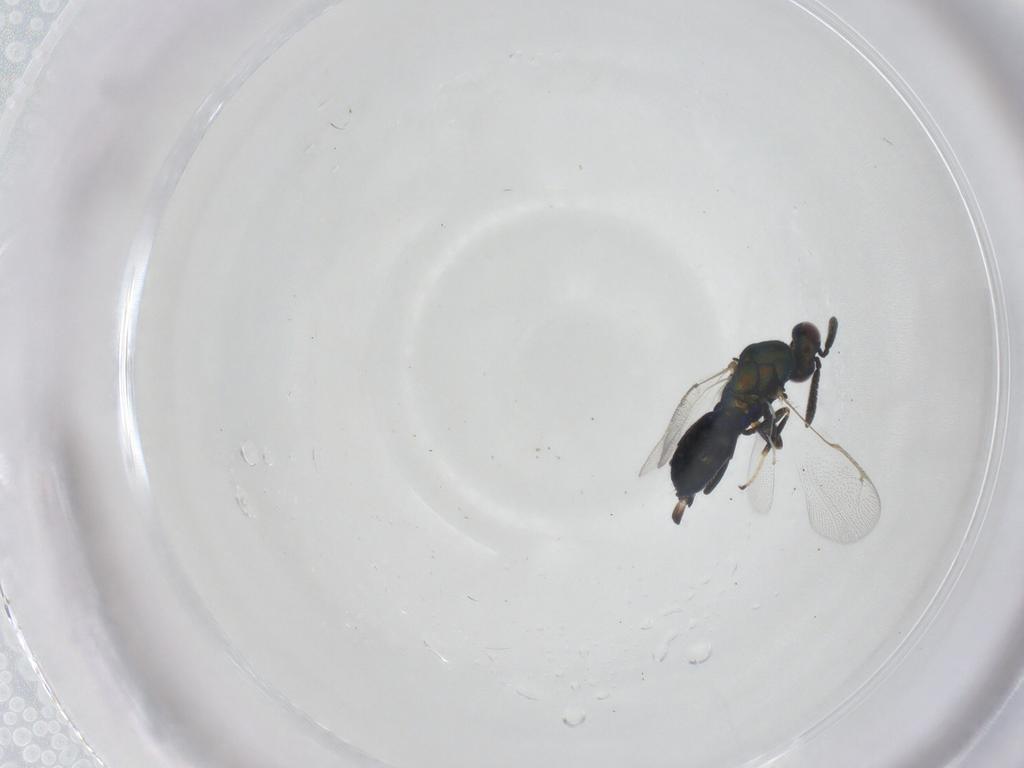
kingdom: Animalia
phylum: Arthropoda
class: Insecta
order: Hymenoptera
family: Torymidae
